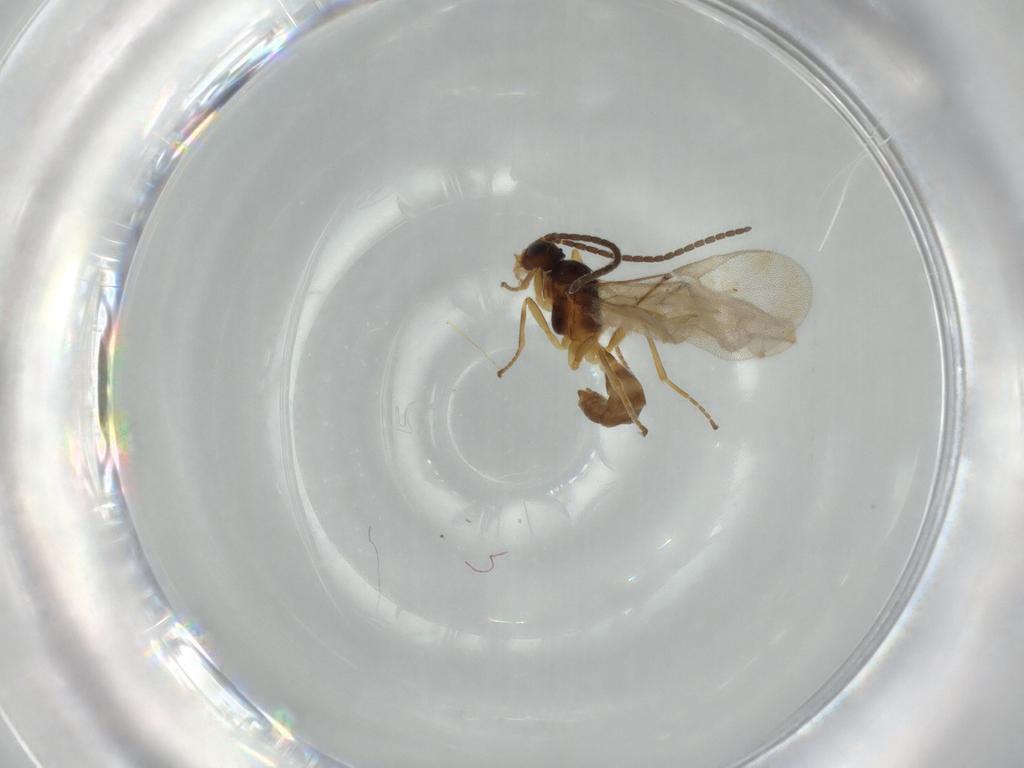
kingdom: Animalia
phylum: Arthropoda
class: Insecta
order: Hymenoptera
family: Braconidae
